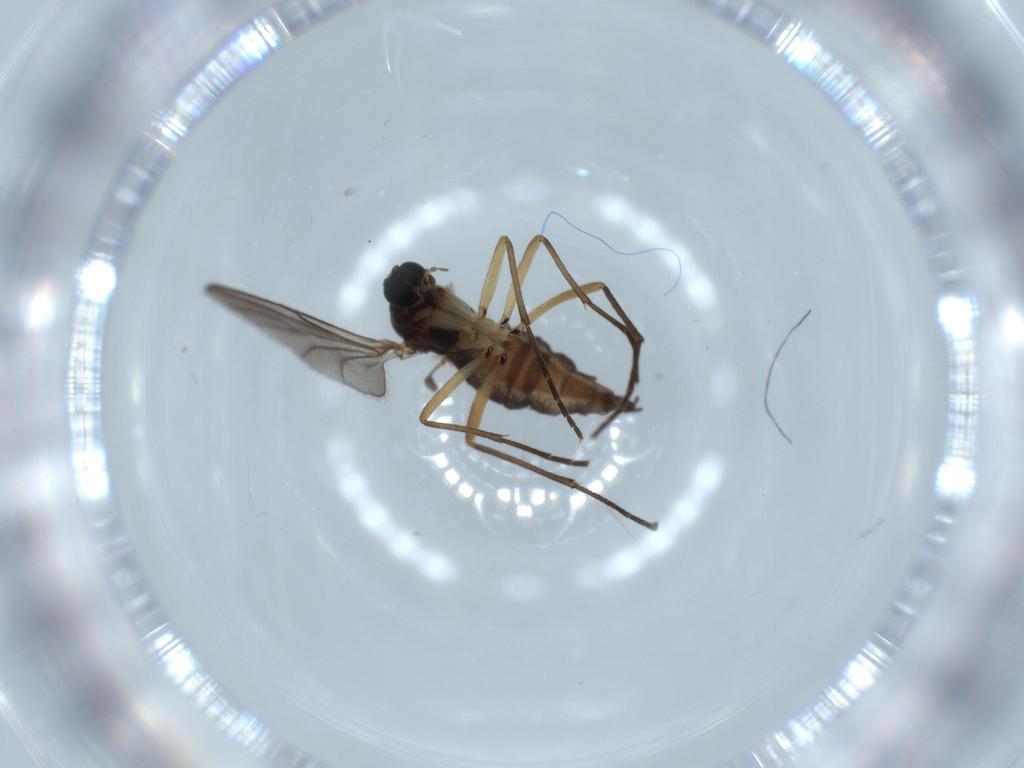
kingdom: Animalia
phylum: Arthropoda
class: Insecta
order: Diptera
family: Sciaridae
